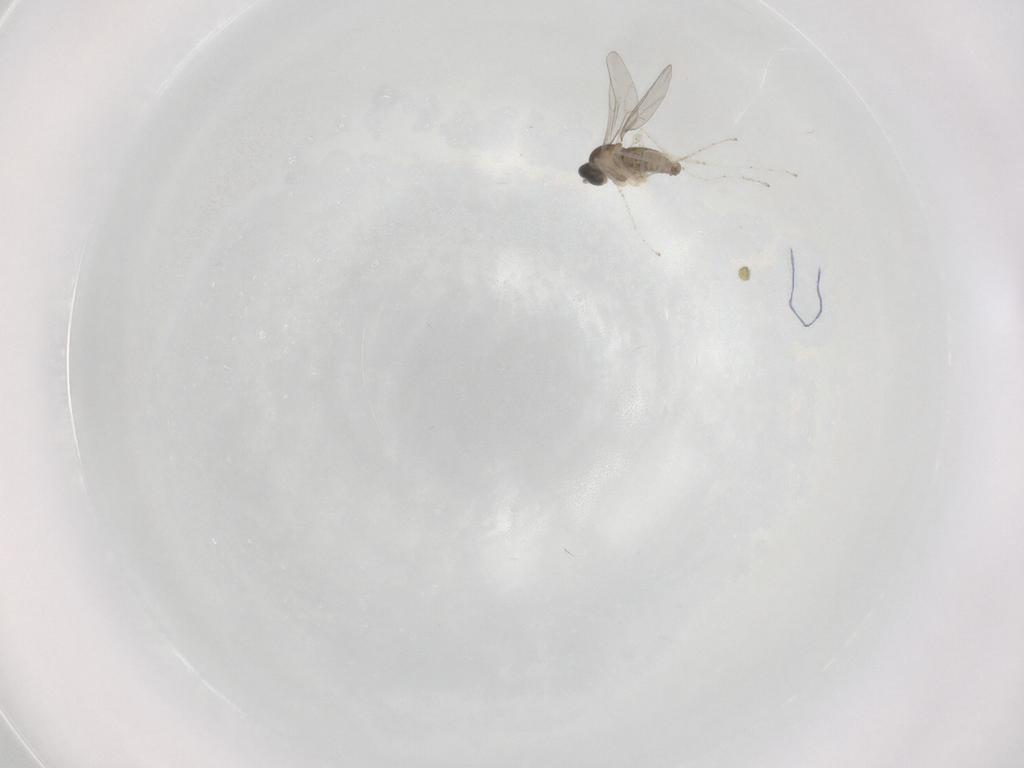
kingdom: Animalia
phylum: Arthropoda
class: Insecta
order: Diptera
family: Cecidomyiidae
